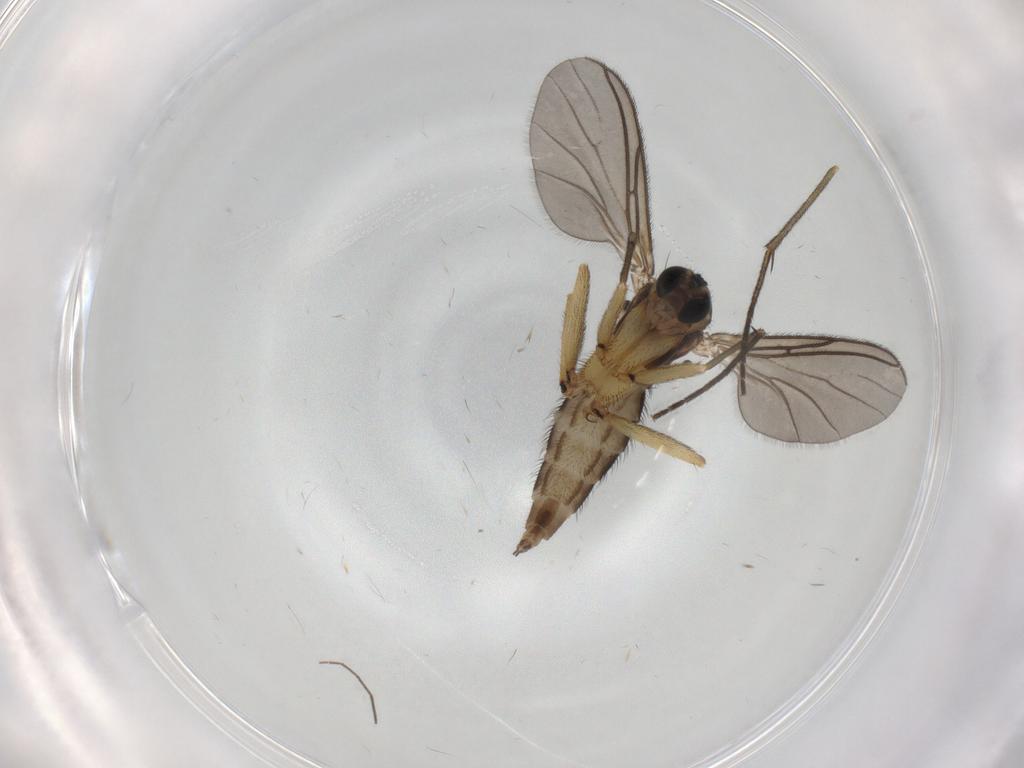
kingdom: Animalia
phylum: Arthropoda
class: Insecta
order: Diptera
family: Sciaridae
